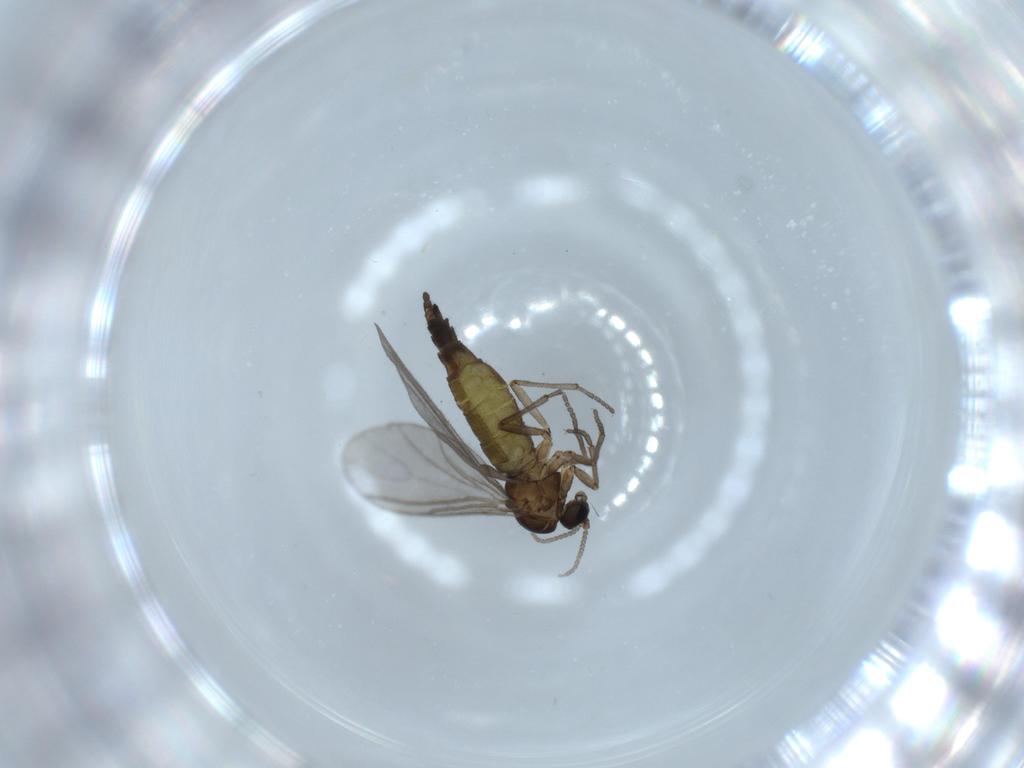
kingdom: Animalia
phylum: Arthropoda
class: Insecta
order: Diptera
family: Sciaridae
